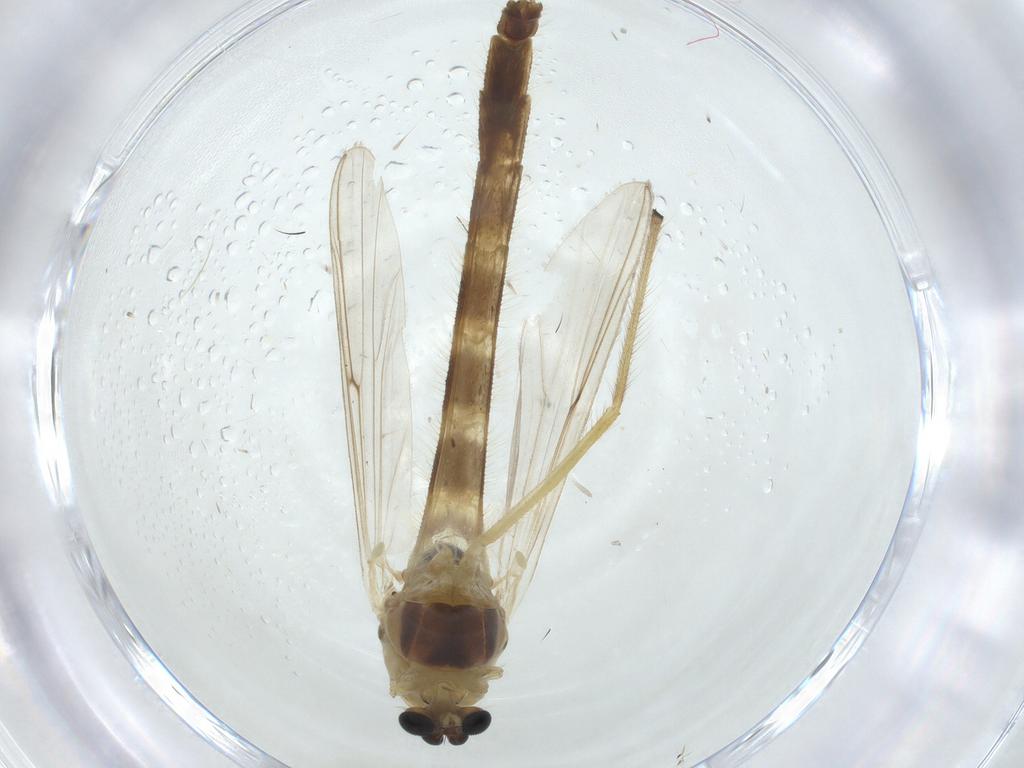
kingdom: Animalia
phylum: Arthropoda
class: Insecta
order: Diptera
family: Chironomidae
